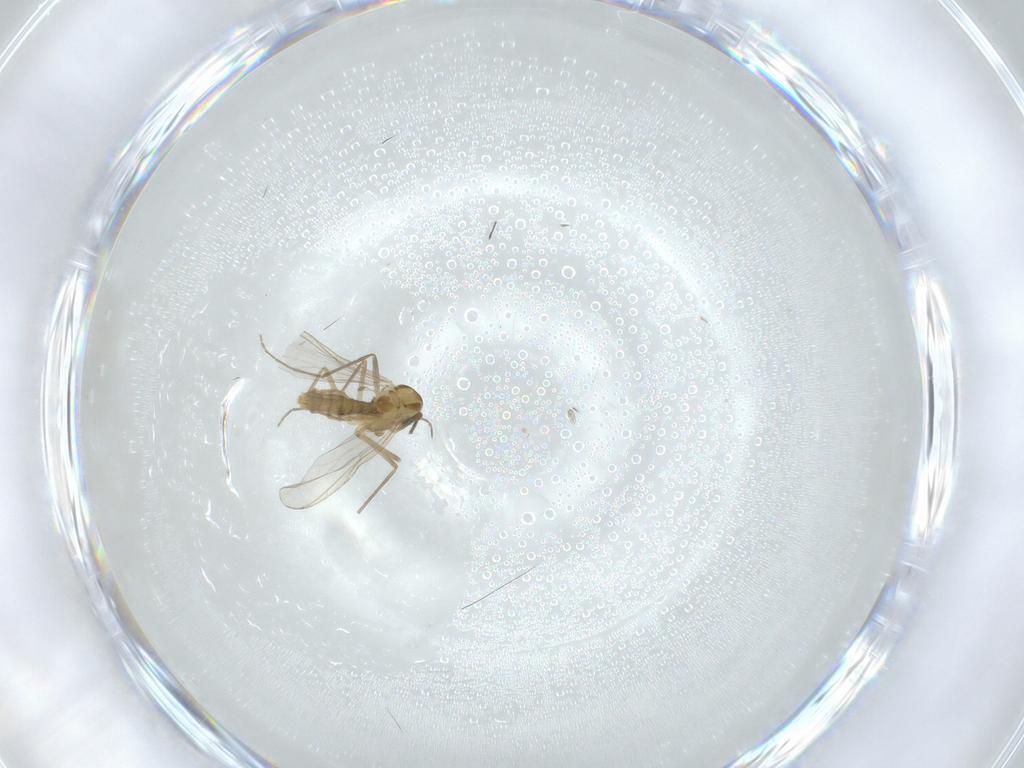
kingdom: Animalia
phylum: Arthropoda
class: Insecta
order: Diptera
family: Chironomidae
